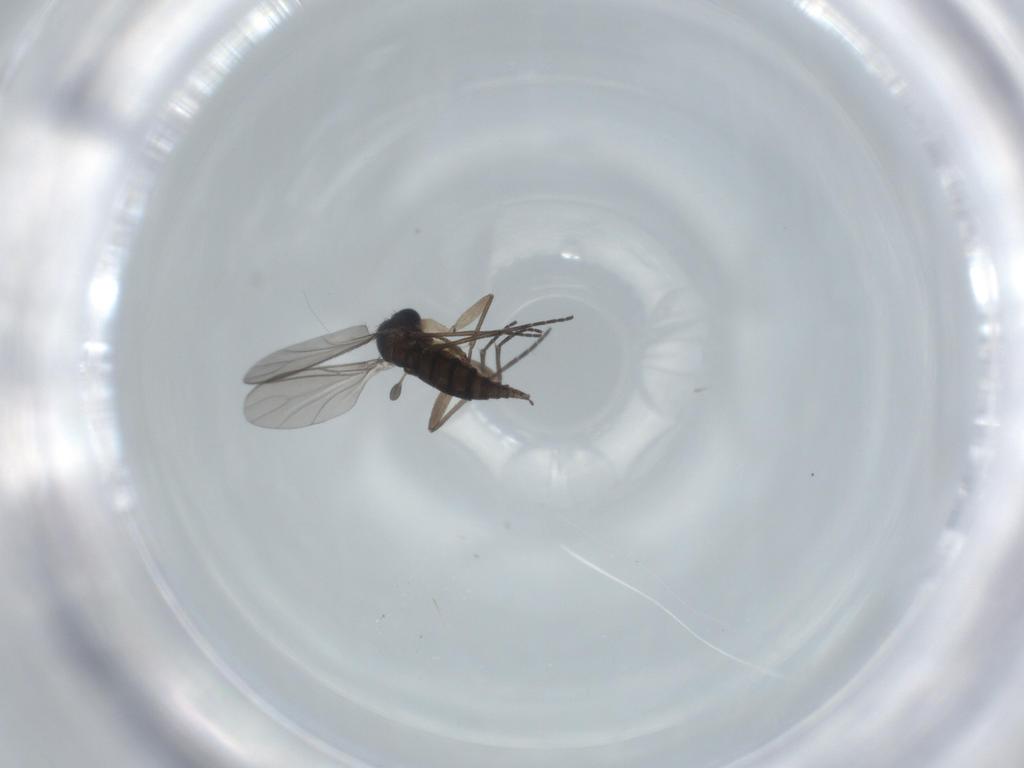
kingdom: Animalia
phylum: Arthropoda
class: Insecta
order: Diptera
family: Sciaridae
